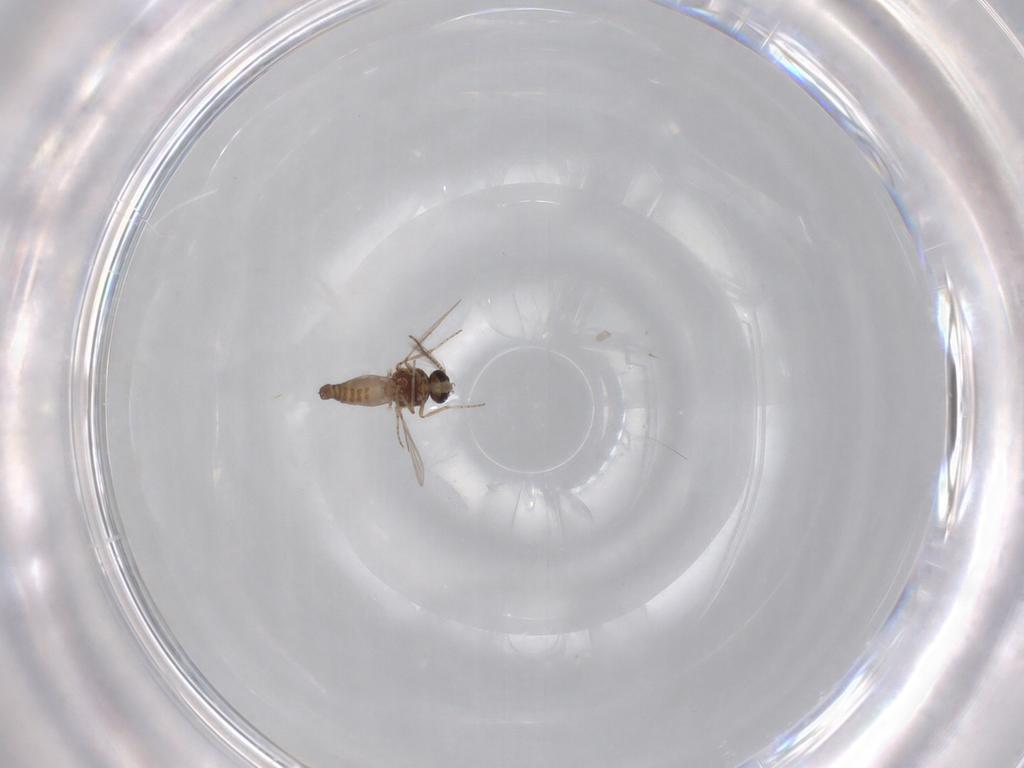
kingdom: Animalia
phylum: Arthropoda
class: Insecta
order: Diptera
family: Ceratopogonidae
